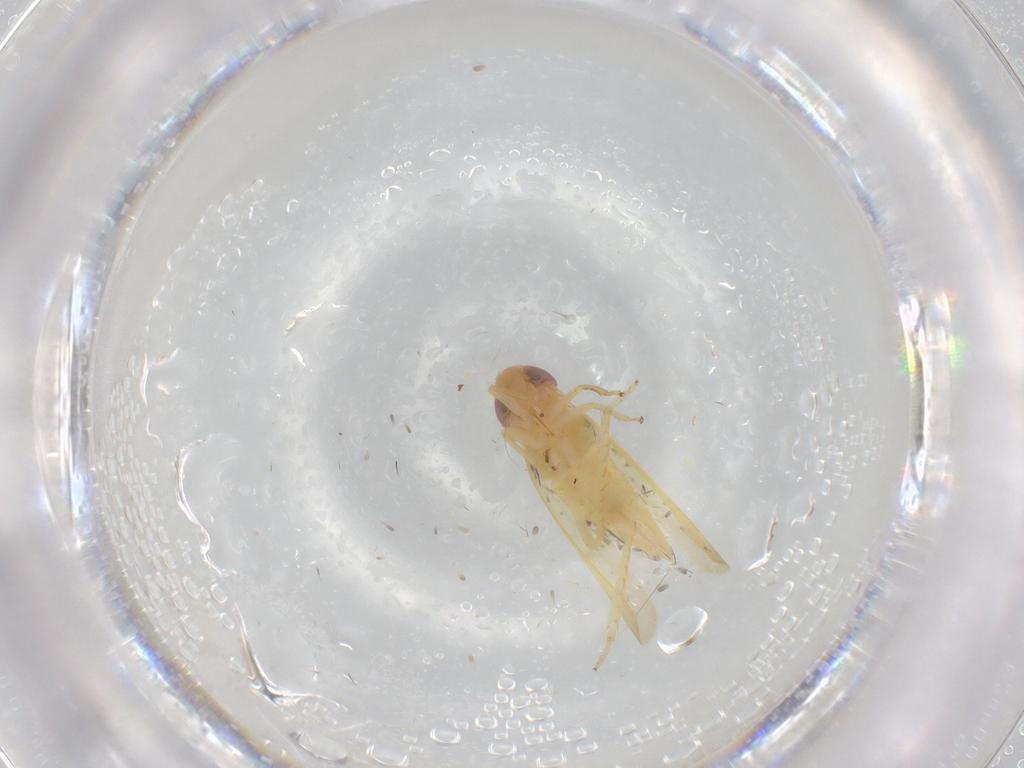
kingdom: Animalia
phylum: Arthropoda
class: Insecta
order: Hemiptera
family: Cicadellidae
